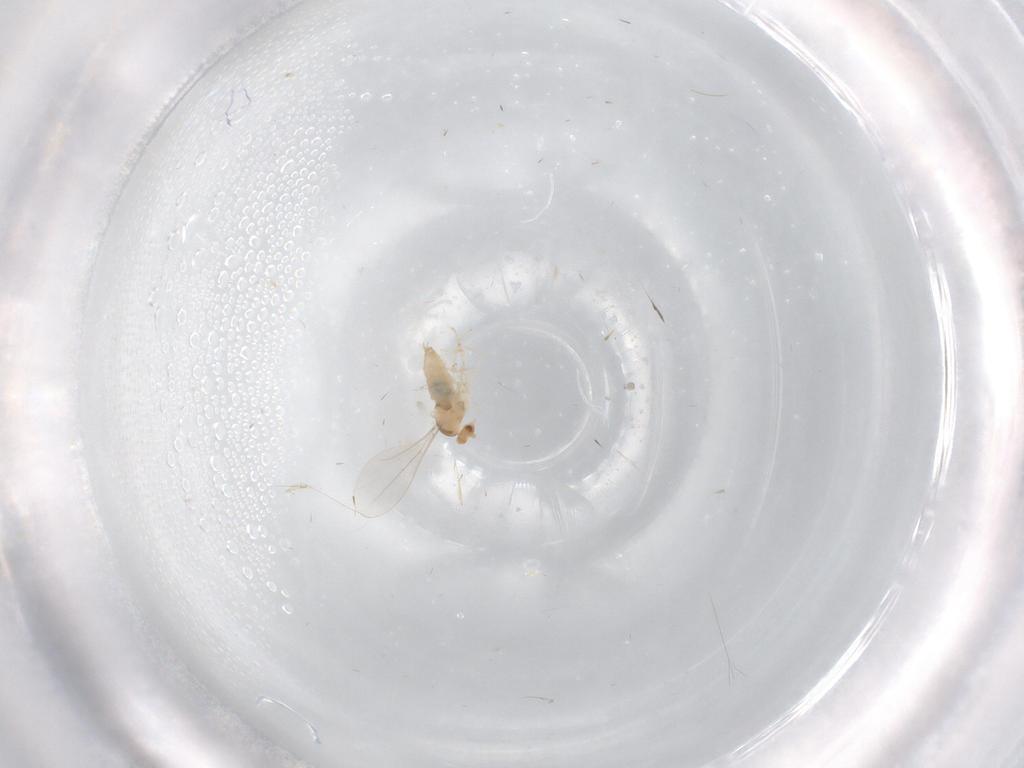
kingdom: Animalia
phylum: Arthropoda
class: Insecta
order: Diptera
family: Cecidomyiidae
